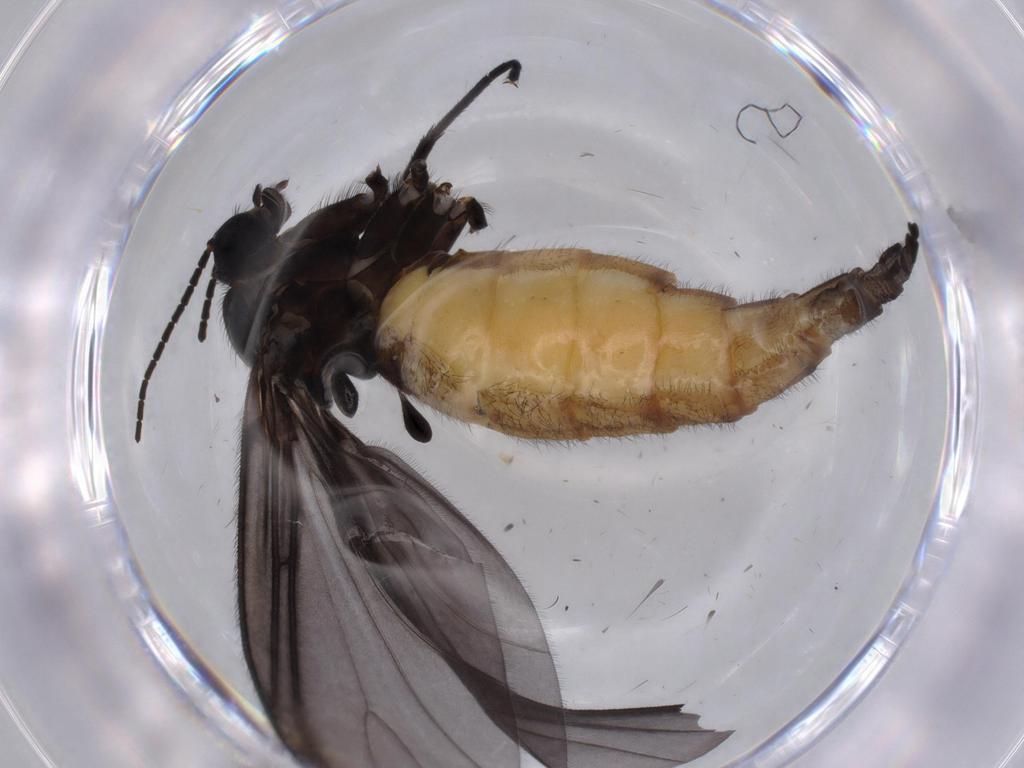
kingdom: Animalia
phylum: Arthropoda
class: Insecta
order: Diptera
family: Cecidomyiidae
